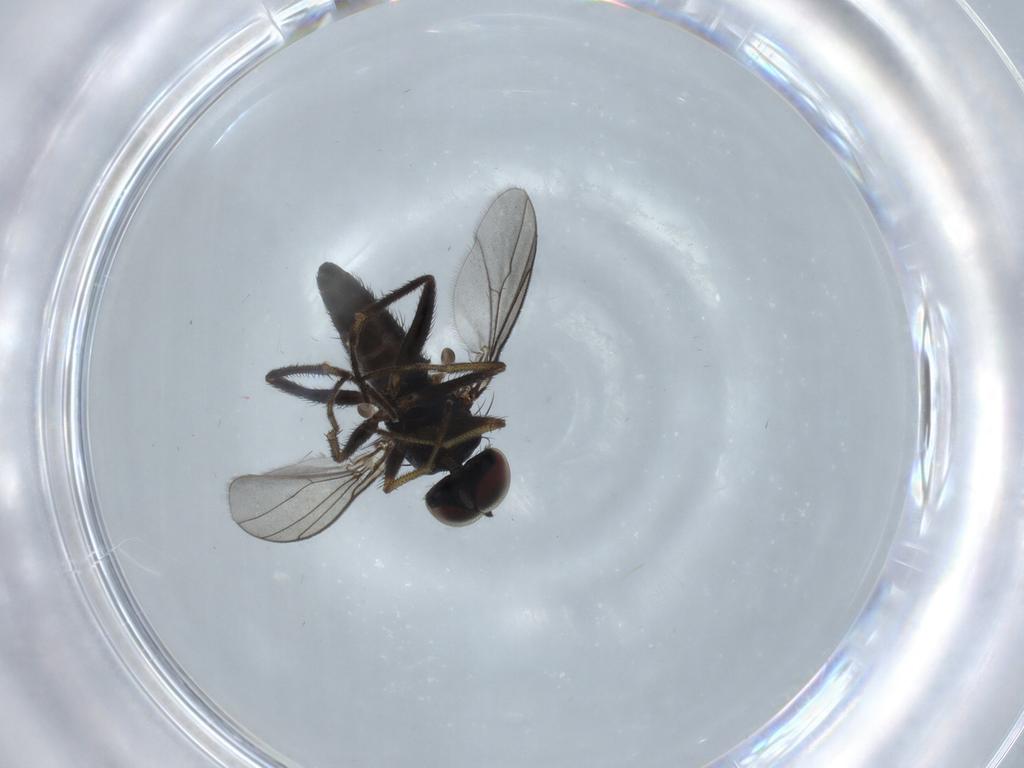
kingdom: Animalia
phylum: Arthropoda
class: Insecta
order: Diptera
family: Dolichopodidae
